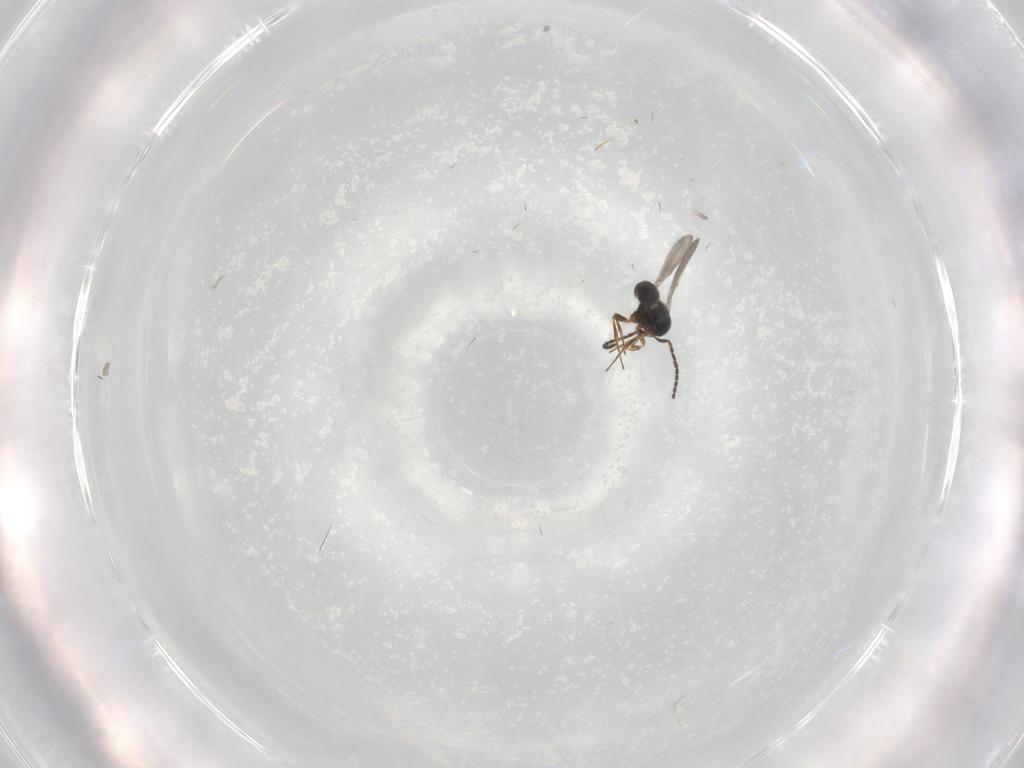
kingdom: Animalia
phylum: Arthropoda
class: Insecta
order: Hymenoptera
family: Scelionidae
